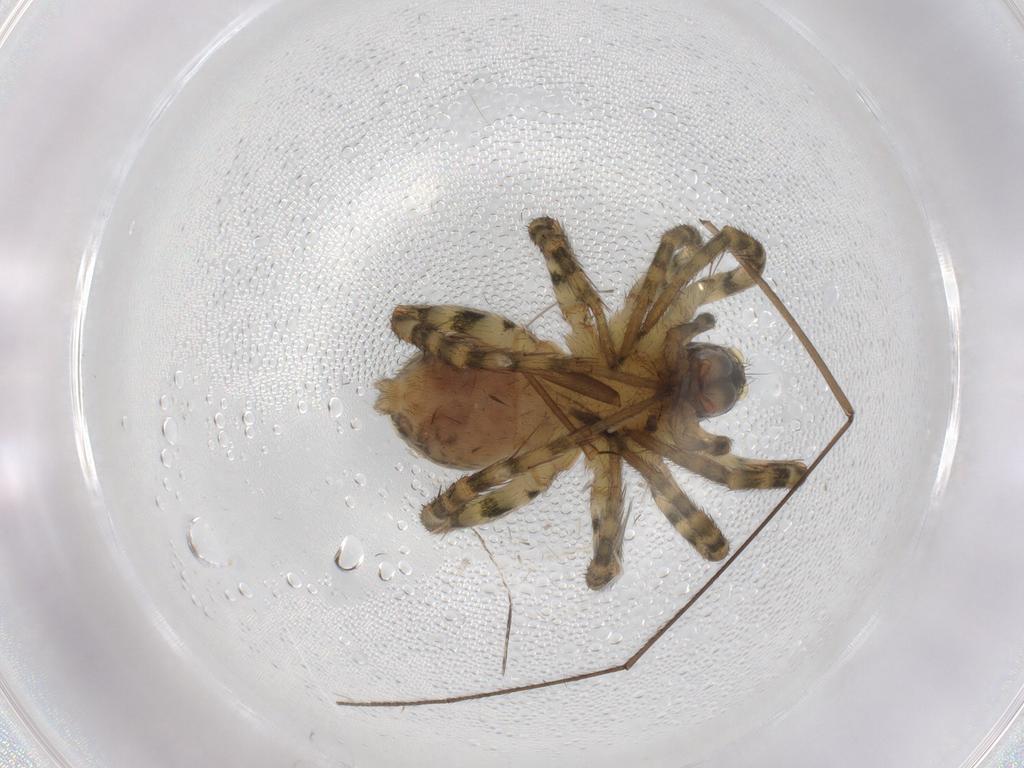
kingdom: Animalia
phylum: Arthropoda
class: Arachnida
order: Araneae
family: Lycosidae
